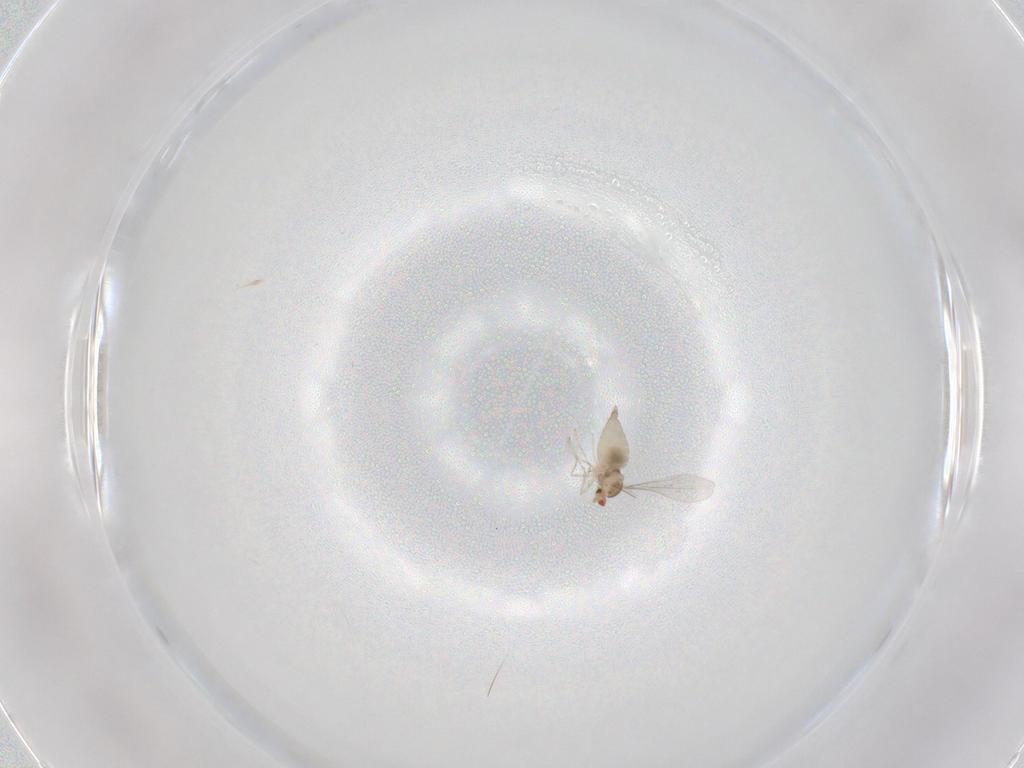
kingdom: Animalia
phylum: Arthropoda
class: Insecta
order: Diptera
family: Cecidomyiidae
